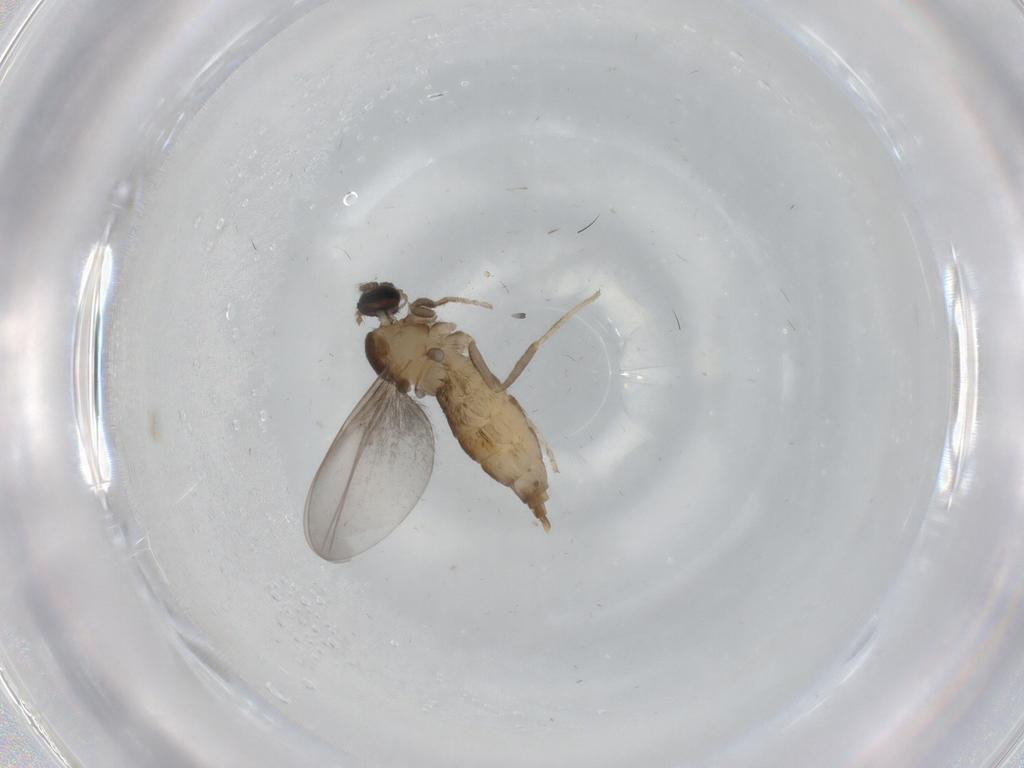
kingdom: Animalia
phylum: Arthropoda
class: Insecta
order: Diptera
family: Cecidomyiidae
